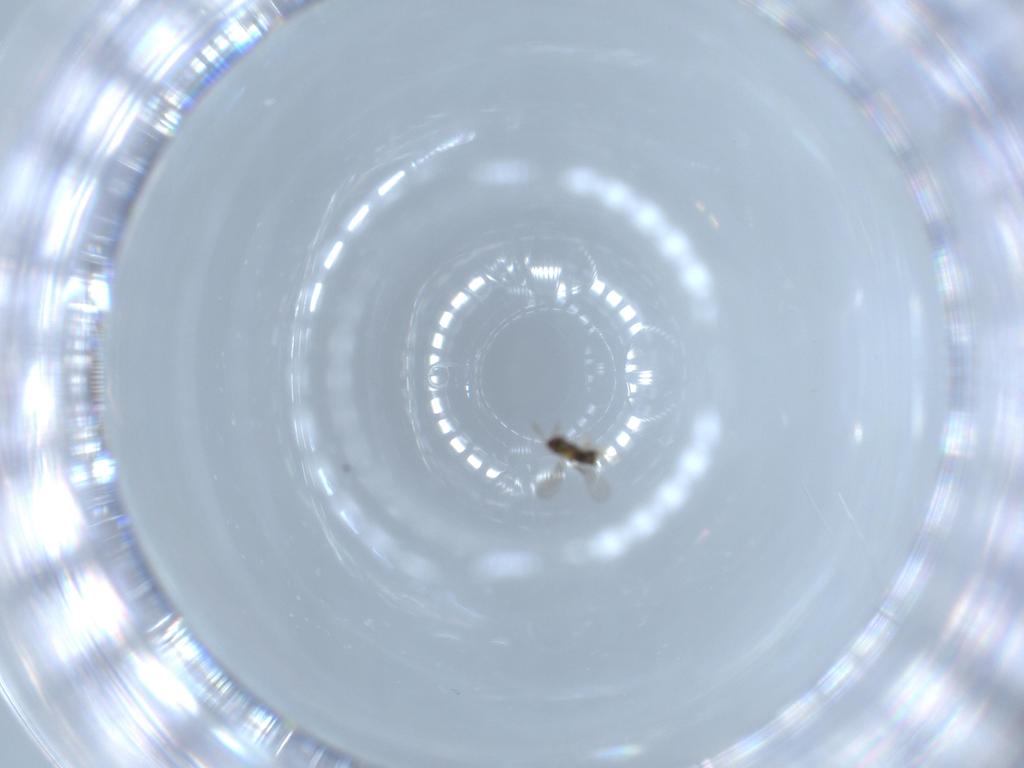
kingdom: Animalia
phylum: Arthropoda
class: Insecta
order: Hymenoptera
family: Aphelinidae
